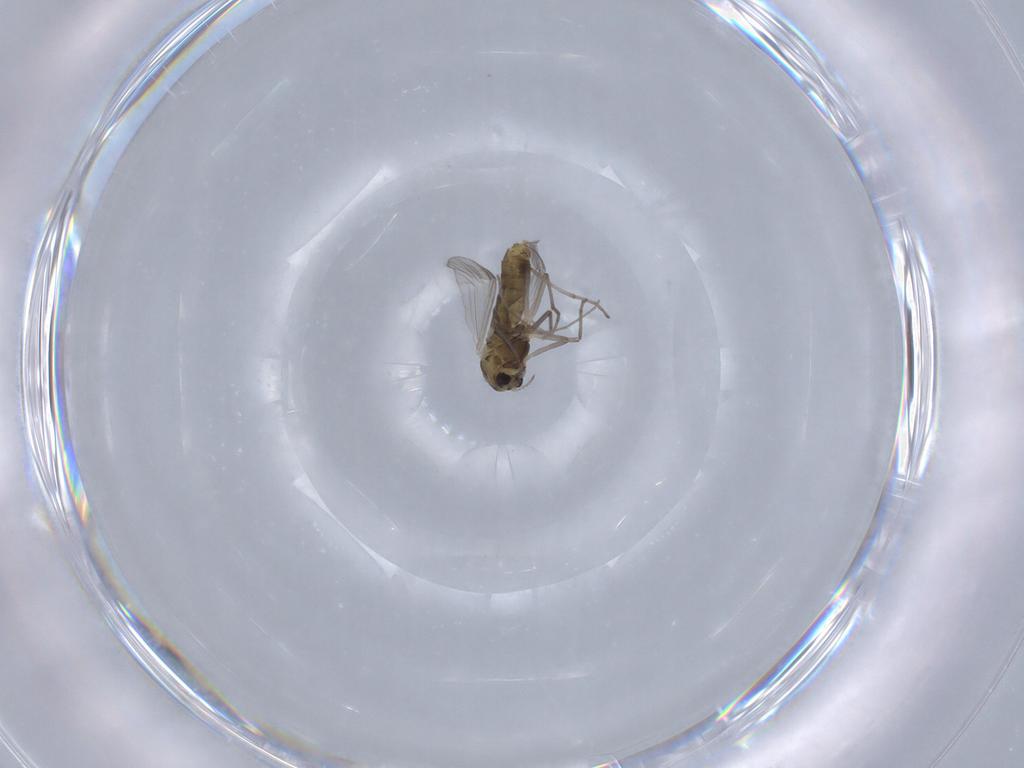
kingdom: Animalia
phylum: Arthropoda
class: Insecta
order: Diptera
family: Chironomidae
